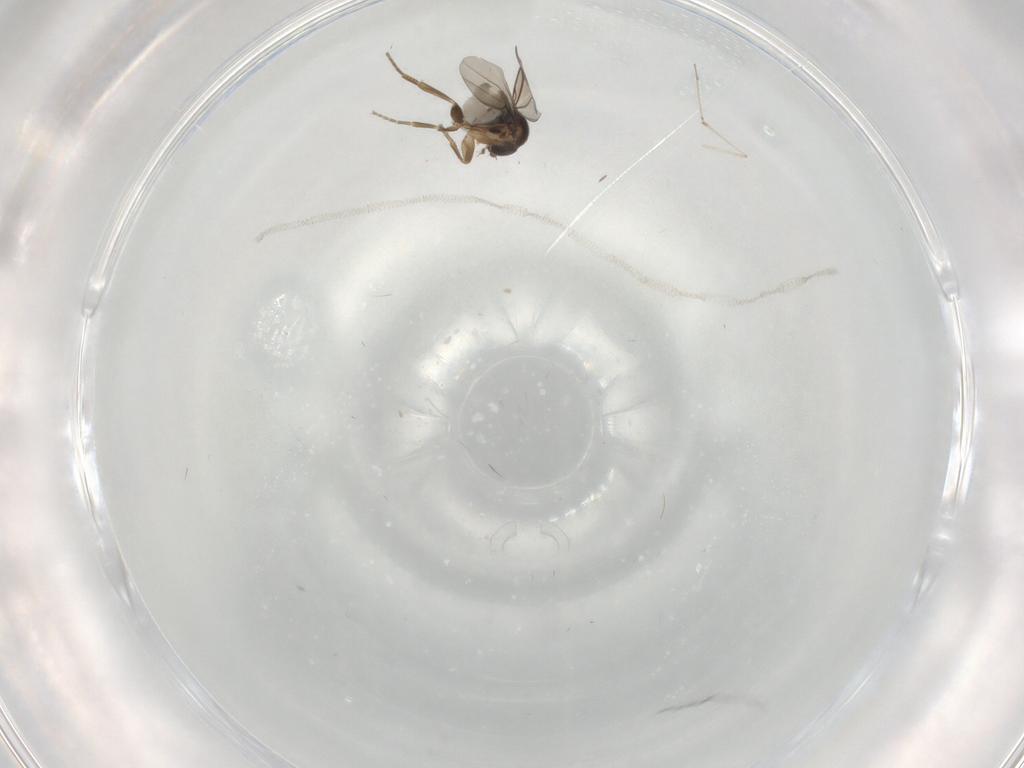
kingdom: Animalia
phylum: Arthropoda
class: Insecta
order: Diptera
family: Phoridae
